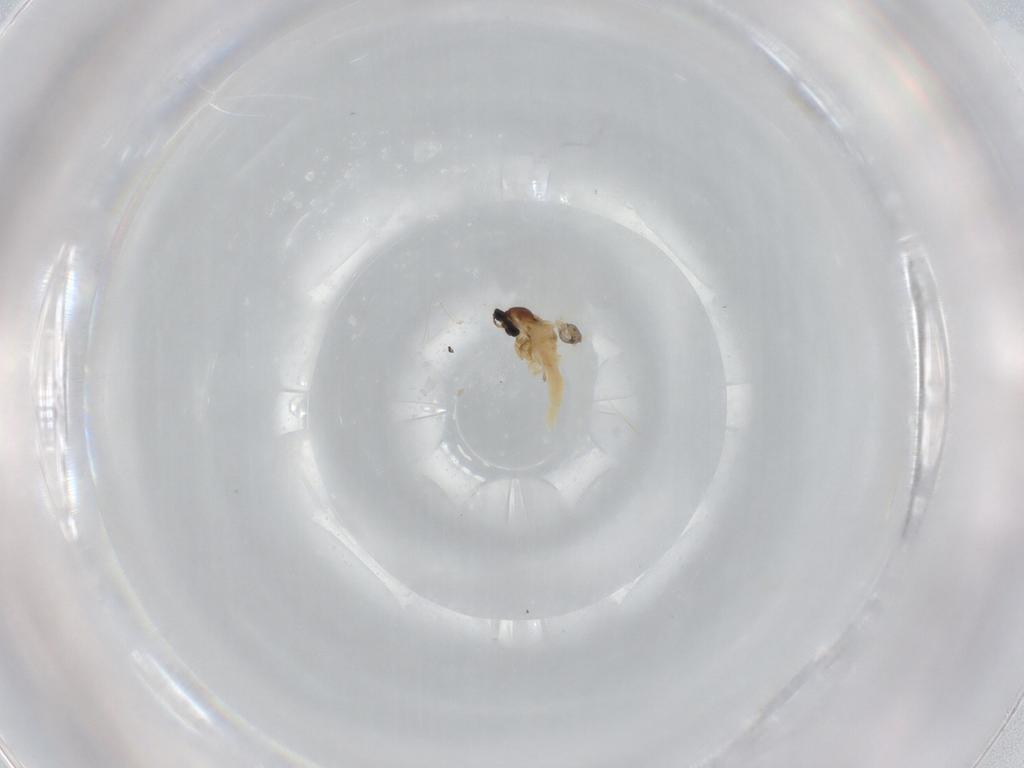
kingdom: Animalia
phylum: Arthropoda
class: Insecta
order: Diptera
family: Cecidomyiidae
